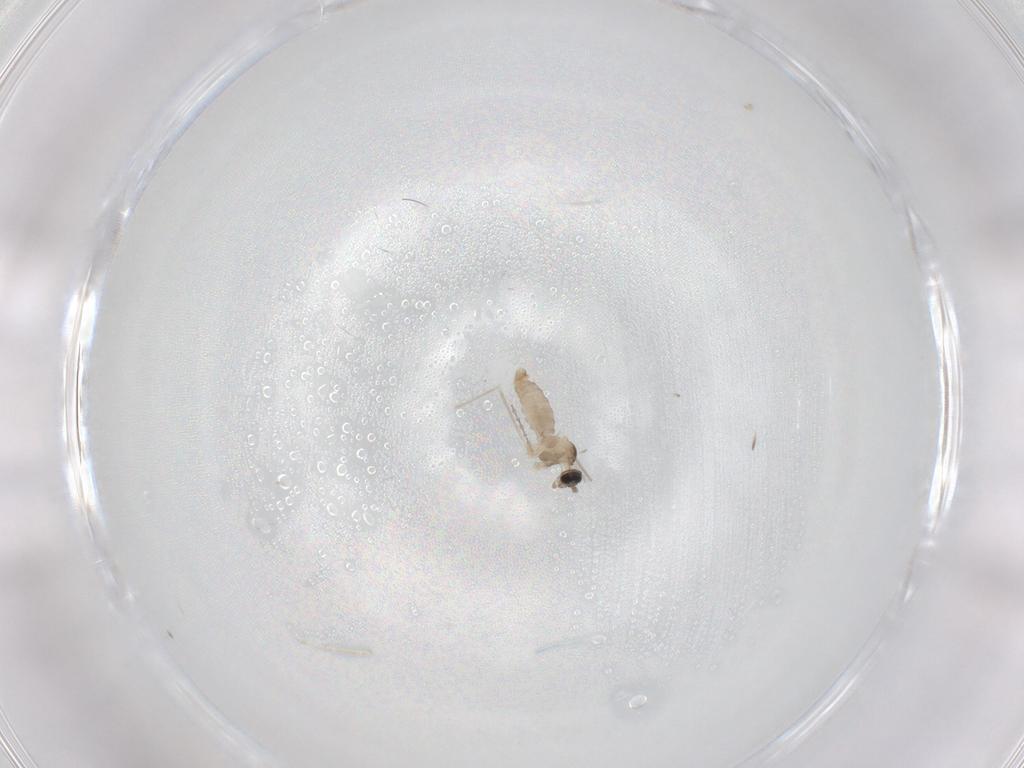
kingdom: Animalia
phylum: Arthropoda
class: Insecta
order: Diptera
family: Cecidomyiidae
